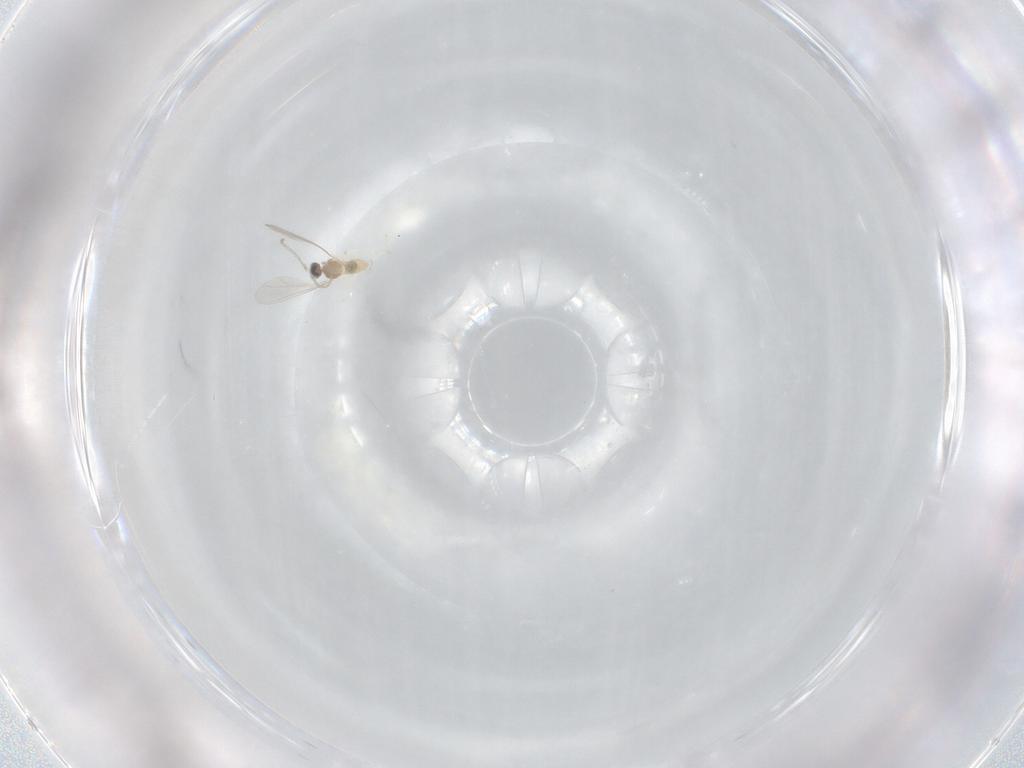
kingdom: Animalia
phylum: Arthropoda
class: Insecta
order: Diptera
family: Cecidomyiidae
